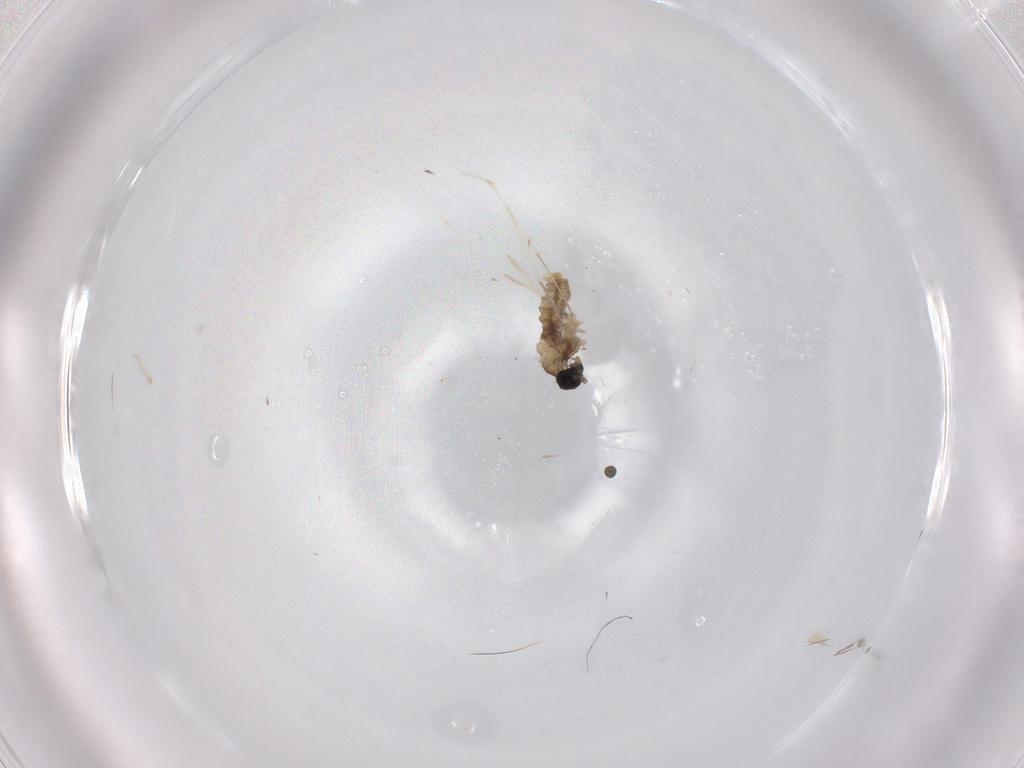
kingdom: Animalia
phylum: Arthropoda
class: Insecta
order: Diptera
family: Cecidomyiidae
